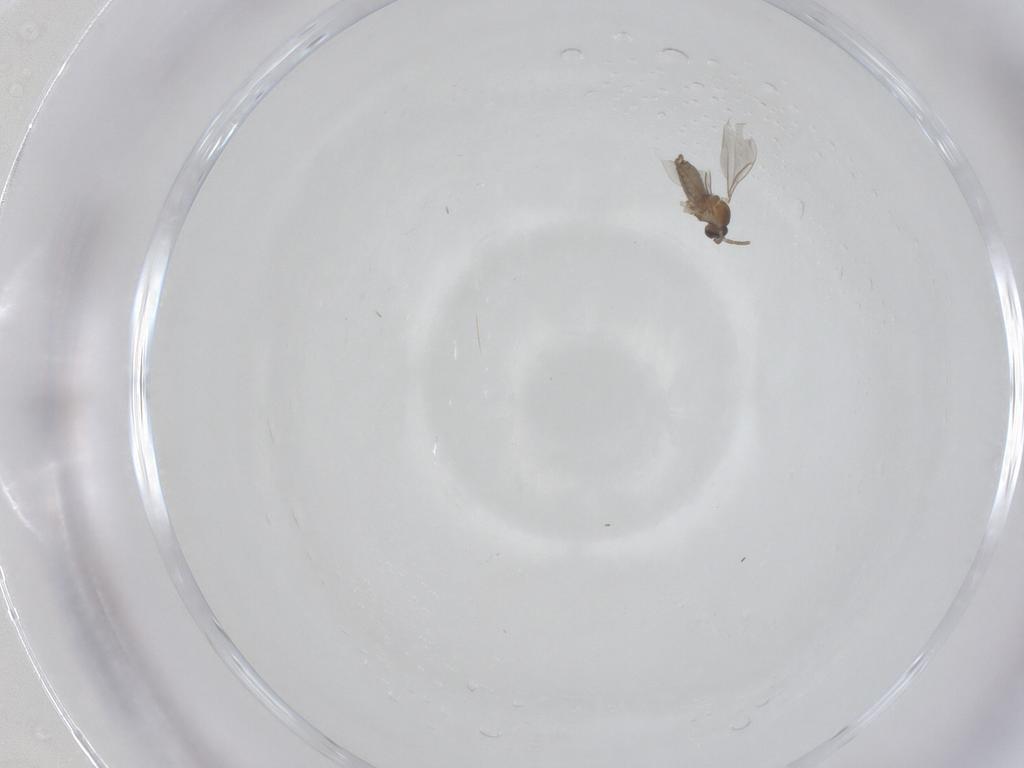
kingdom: Animalia
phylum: Arthropoda
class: Insecta
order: Diptera
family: Cecidomyiidae
